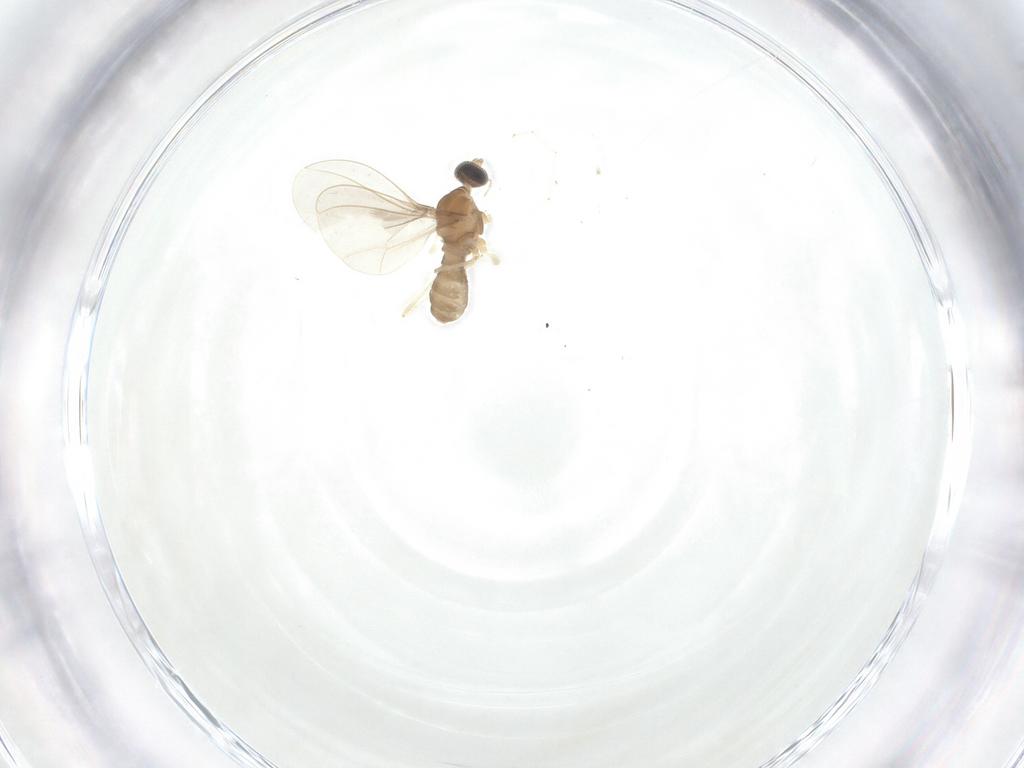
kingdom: Animalia
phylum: Arthropoda
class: Insecta
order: Diptera
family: Cecidomyiidae
